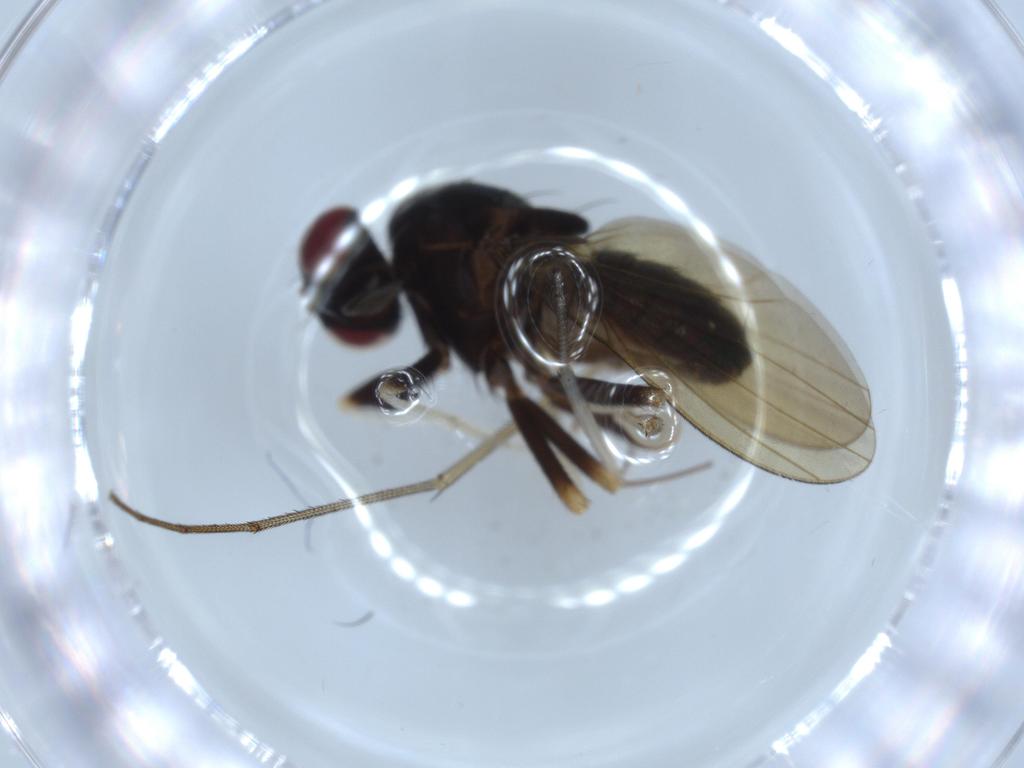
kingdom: Animalia
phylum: Arthropoda
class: Insecta
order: Diptera
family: Cecidomyiidae
